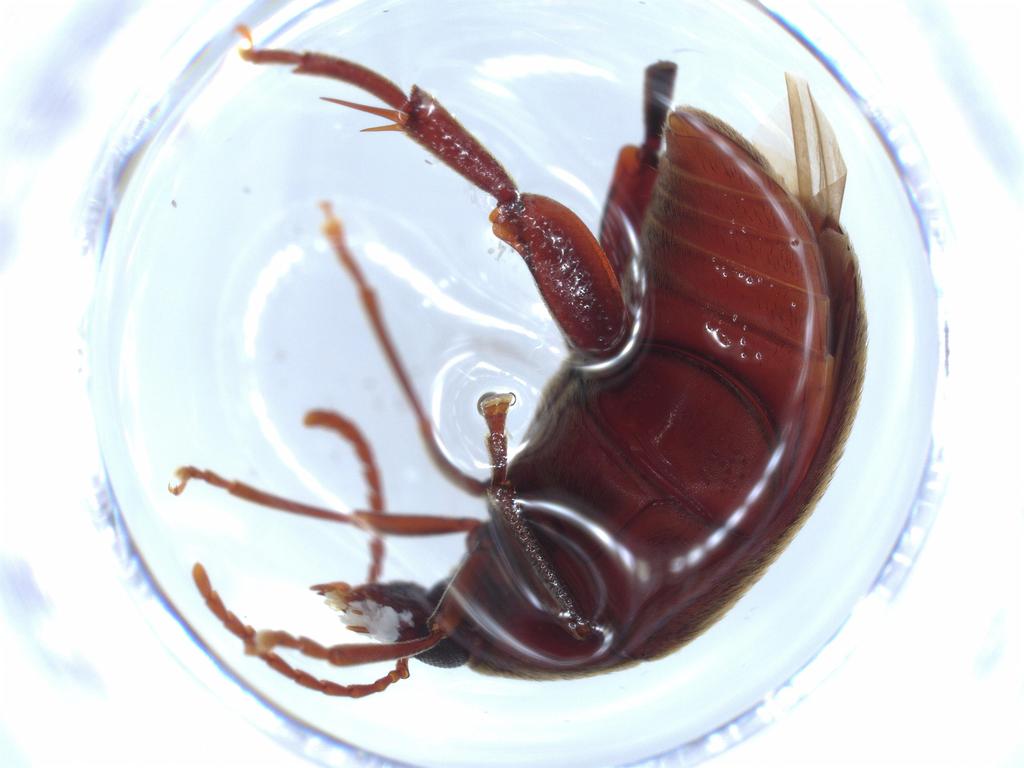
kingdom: Animalia
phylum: Arthropoda
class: Insecta
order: Coleoptera
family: Chrysomelidae
